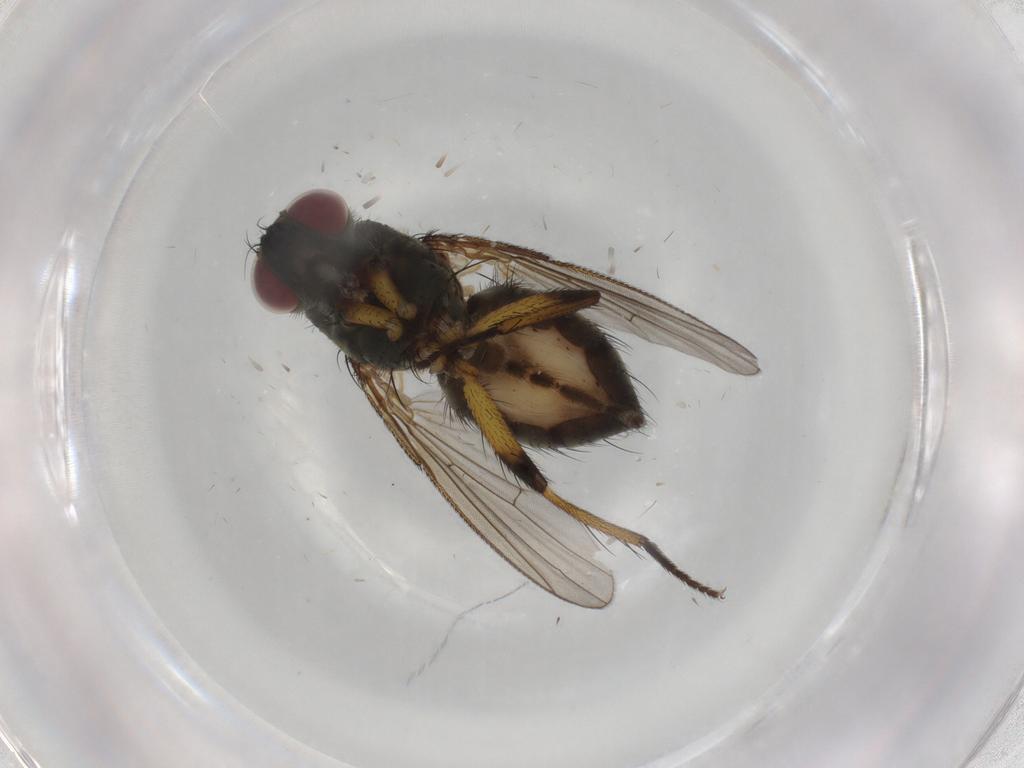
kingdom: Animalia
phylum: Arthropoda
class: Insecta
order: Diptera
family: Muscidae
